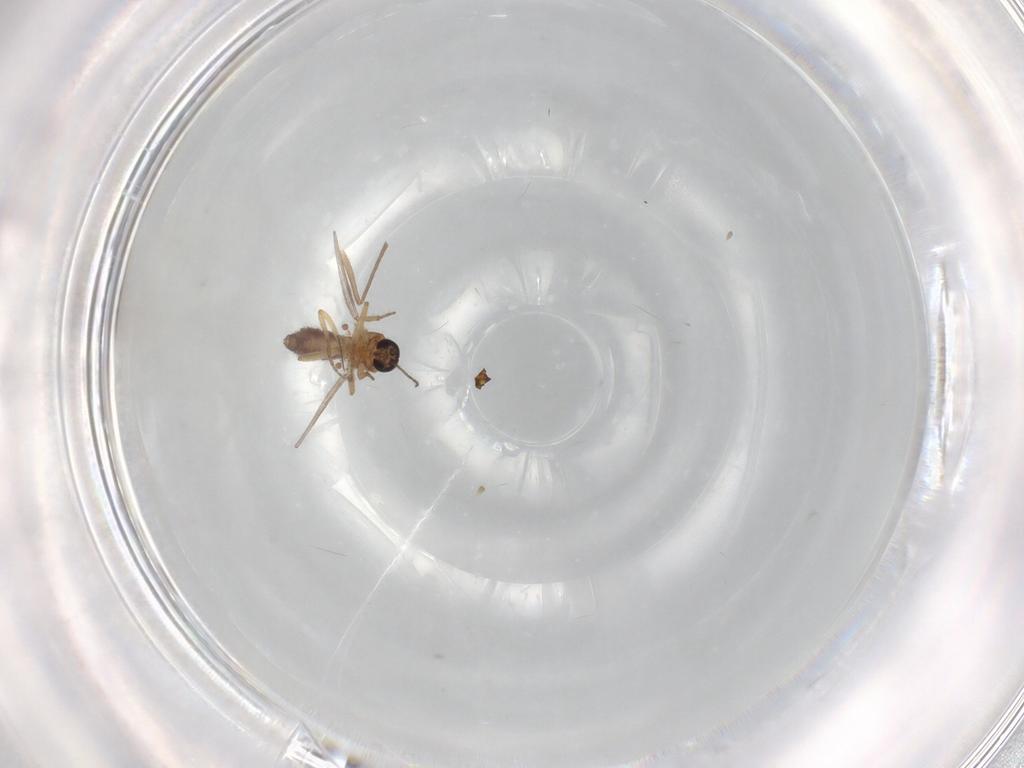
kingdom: Animalia
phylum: Arthropoda
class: Insecta
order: Diptera
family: Ceratopogonidae
